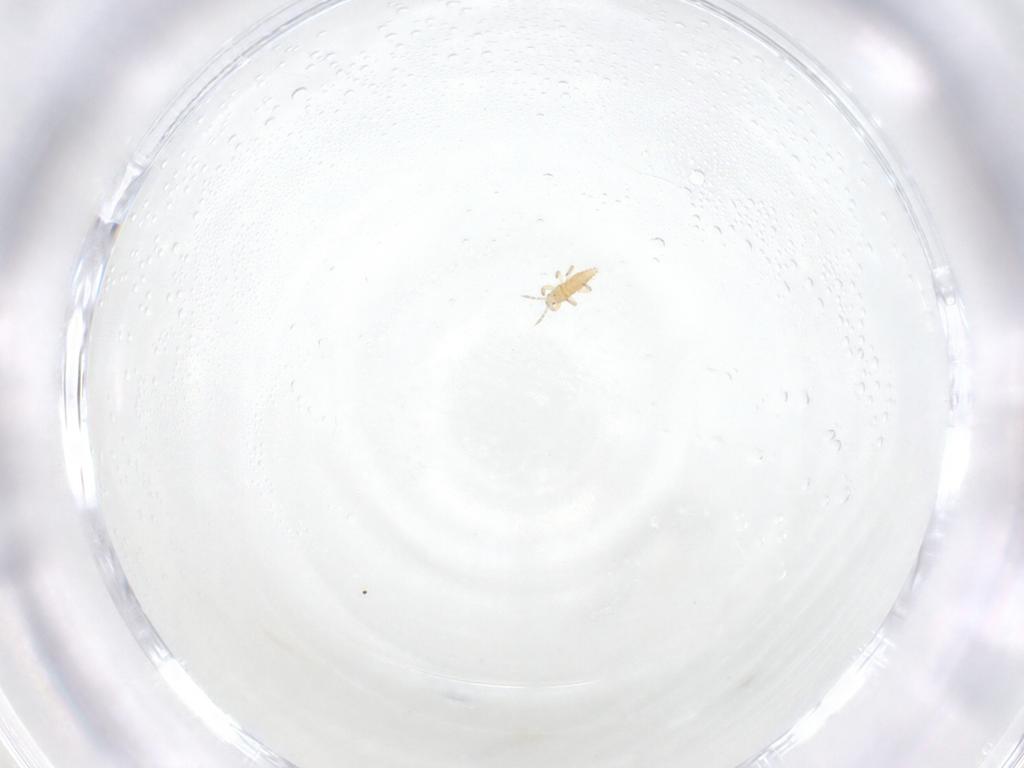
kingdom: Animalia
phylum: Arthropoda
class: Insecta
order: Thysanoptera
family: Aeolothripidae
